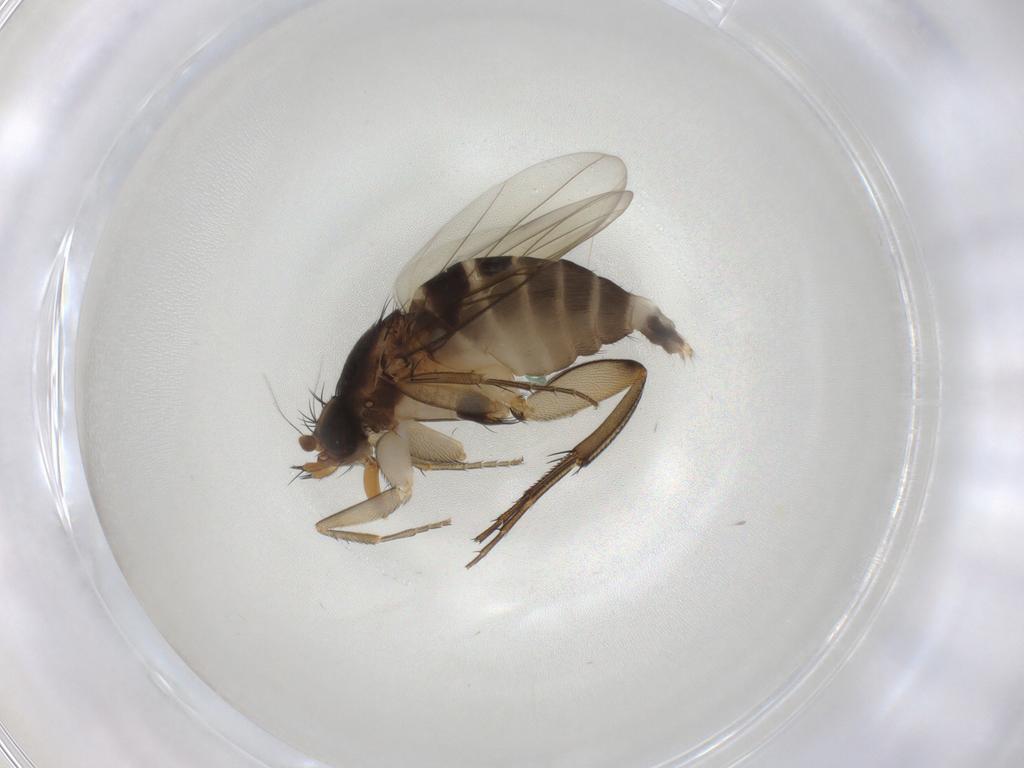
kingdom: Animalia
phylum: Arthropoda
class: Insecta
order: Diptera
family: Phoridae
